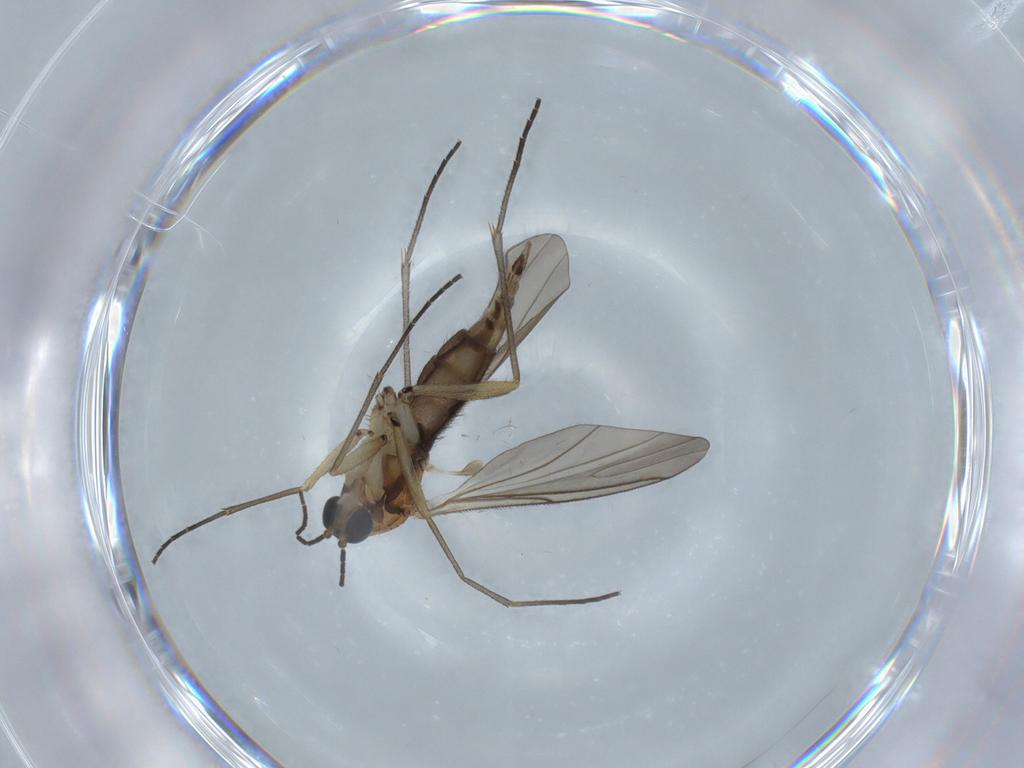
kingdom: Animalia
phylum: Arthropoda
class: Insecta
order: Diptera
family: Sciaridae
